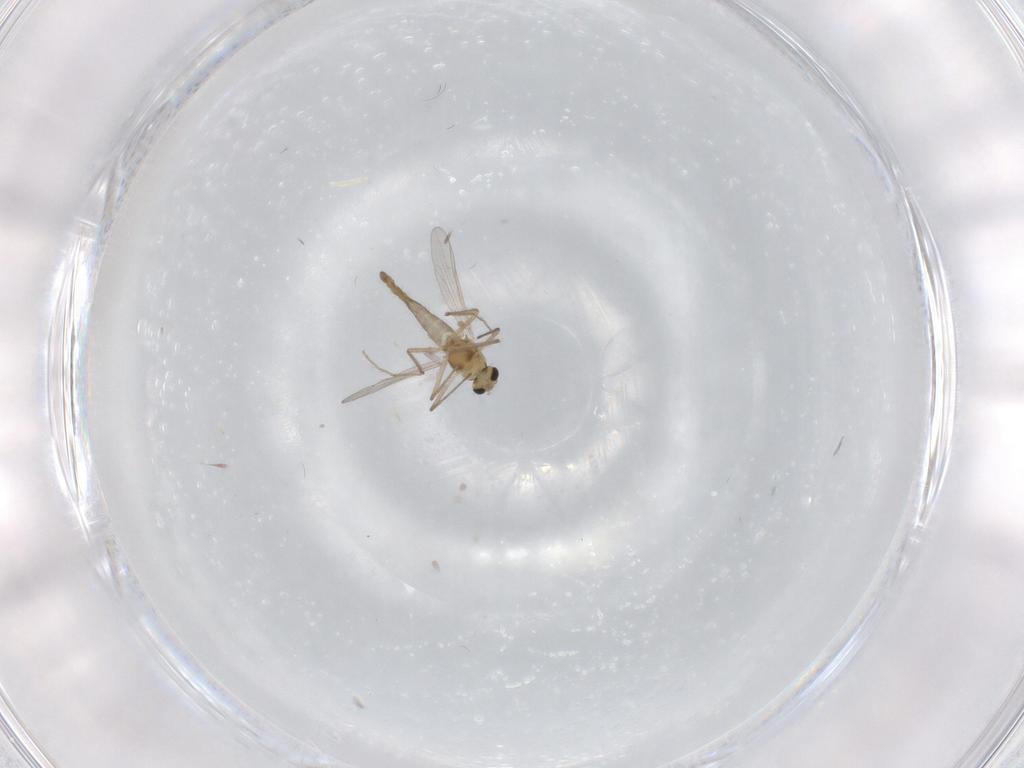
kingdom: Animalia
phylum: Arthropoda
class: Insecta
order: Diptera
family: Chironomidae
